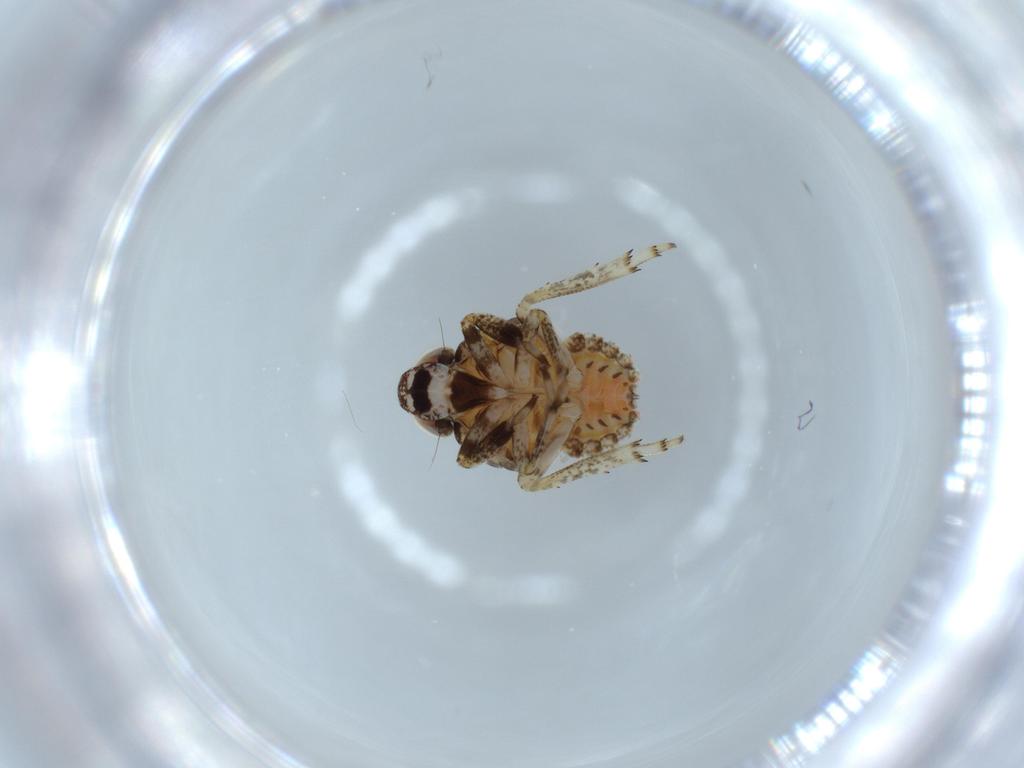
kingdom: Animalia
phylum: Arthropoda
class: Insecta
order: Hemiptera
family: Issidae
